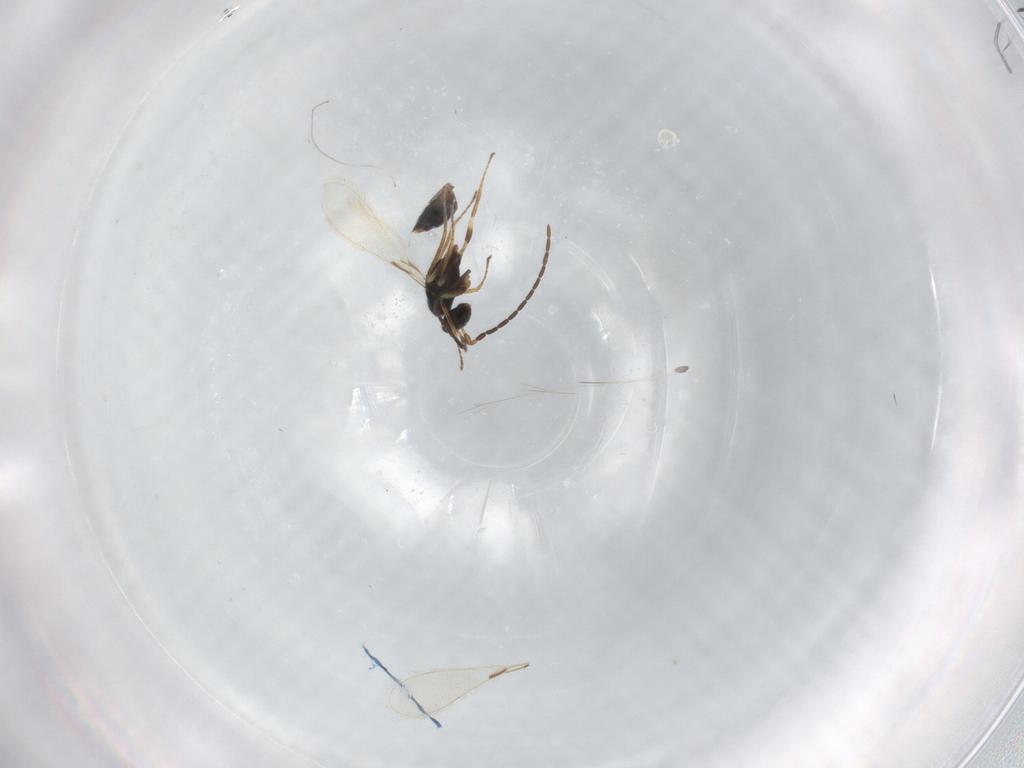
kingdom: Animalia
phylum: Arthropoda
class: Insecta
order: Hymenoptera
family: Mymaridae
